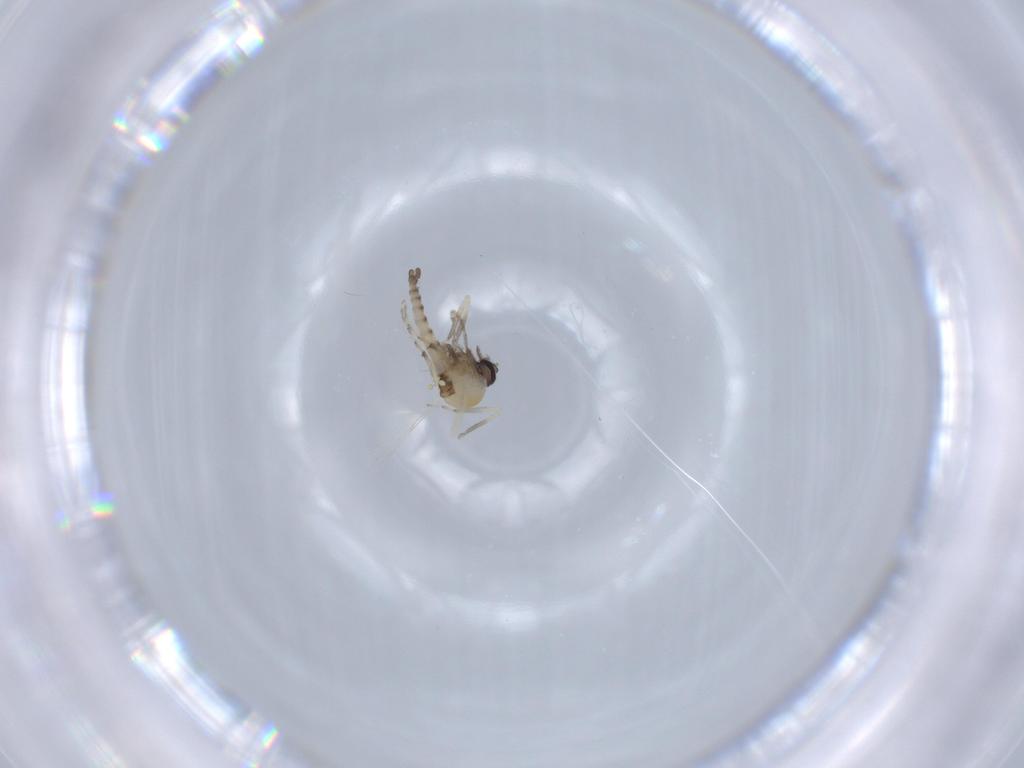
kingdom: Animalia
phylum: Arthropoda
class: Insecta
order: Diptera
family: Ceratopogonidae
